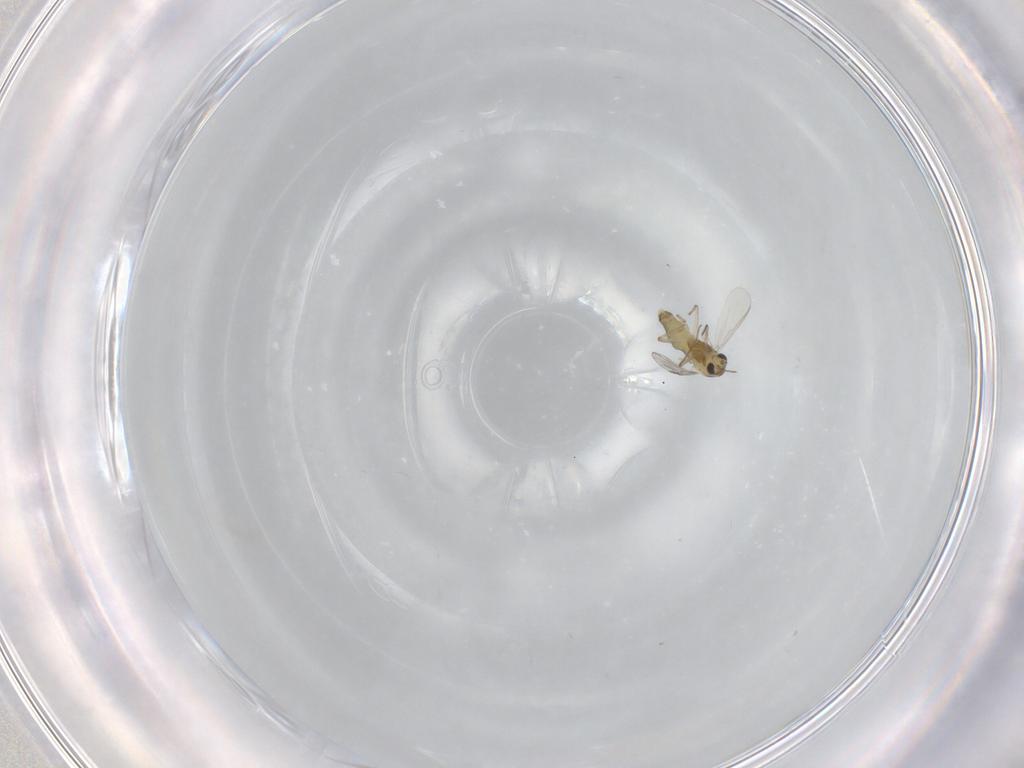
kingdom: Animalia
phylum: Arthropoda
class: Insecta
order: Diptera
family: Chironomidae
